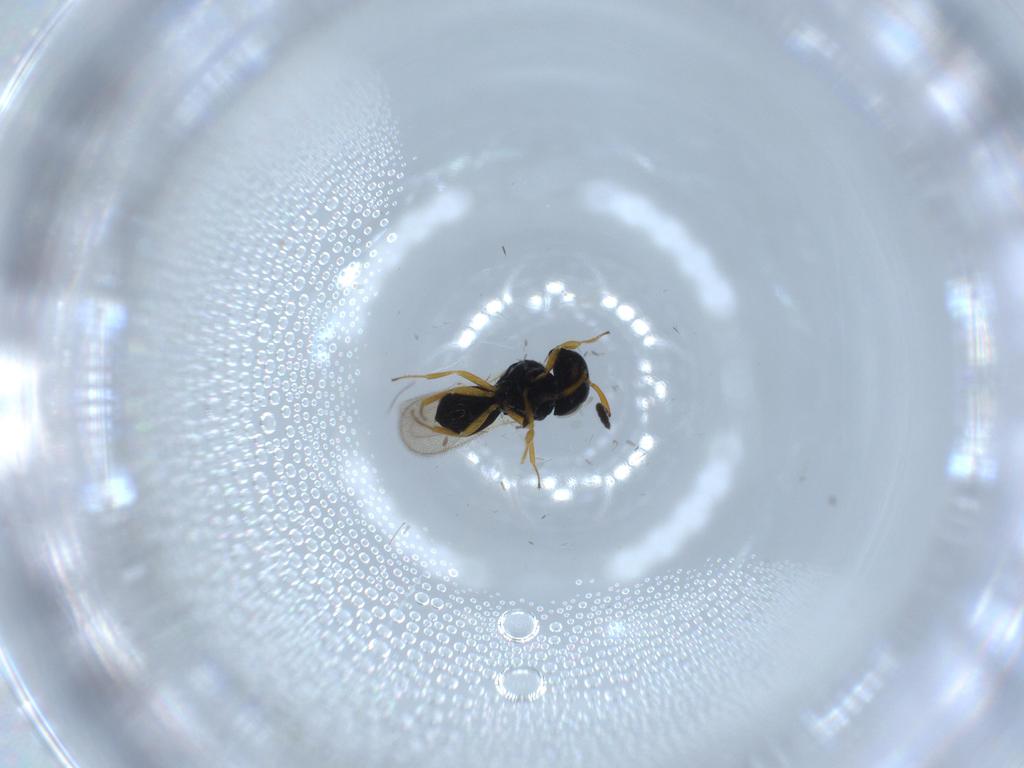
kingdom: Animalia
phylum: Arthropoda
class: Insecta
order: Hymenoptera
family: Scelionidae
